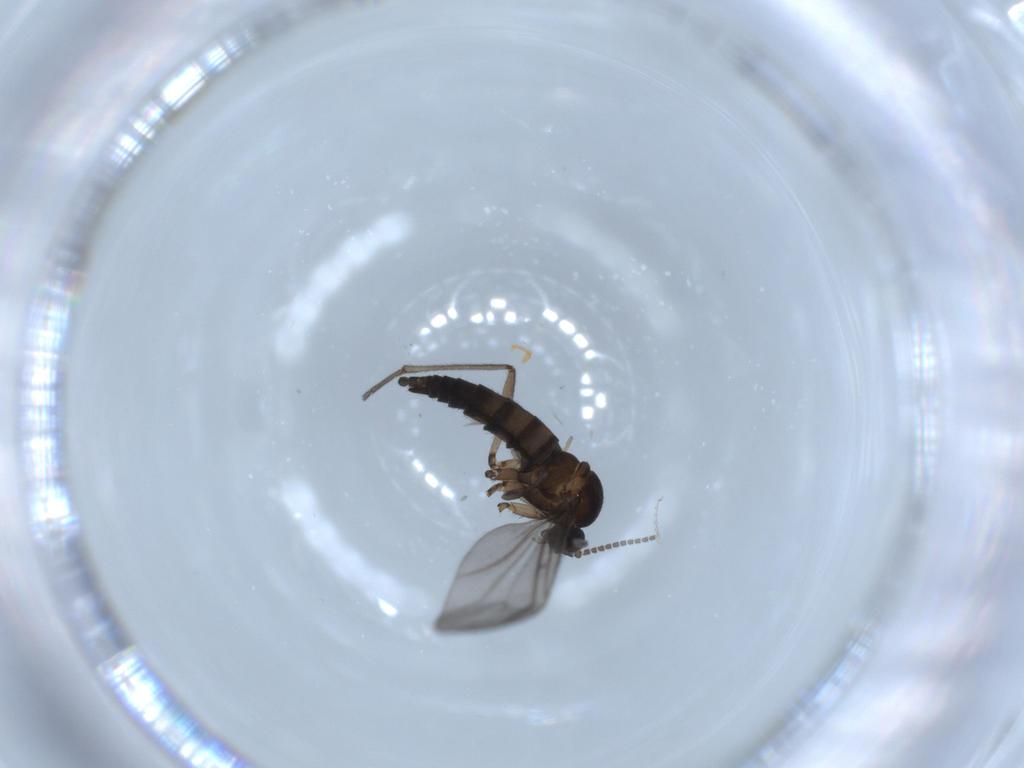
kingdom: Animalia
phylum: Arthropoda
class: Insecta
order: Diptera
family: Sciaridae
